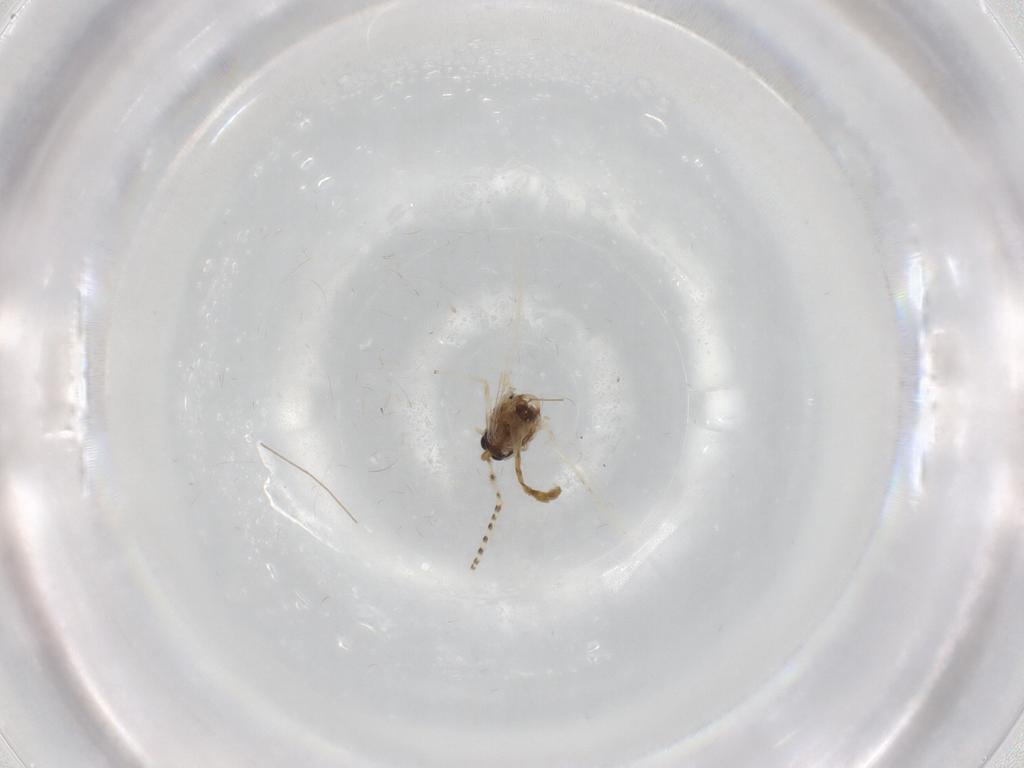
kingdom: Animalia
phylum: Arthropoda
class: Insecta
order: Diptera
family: Chironomidae
